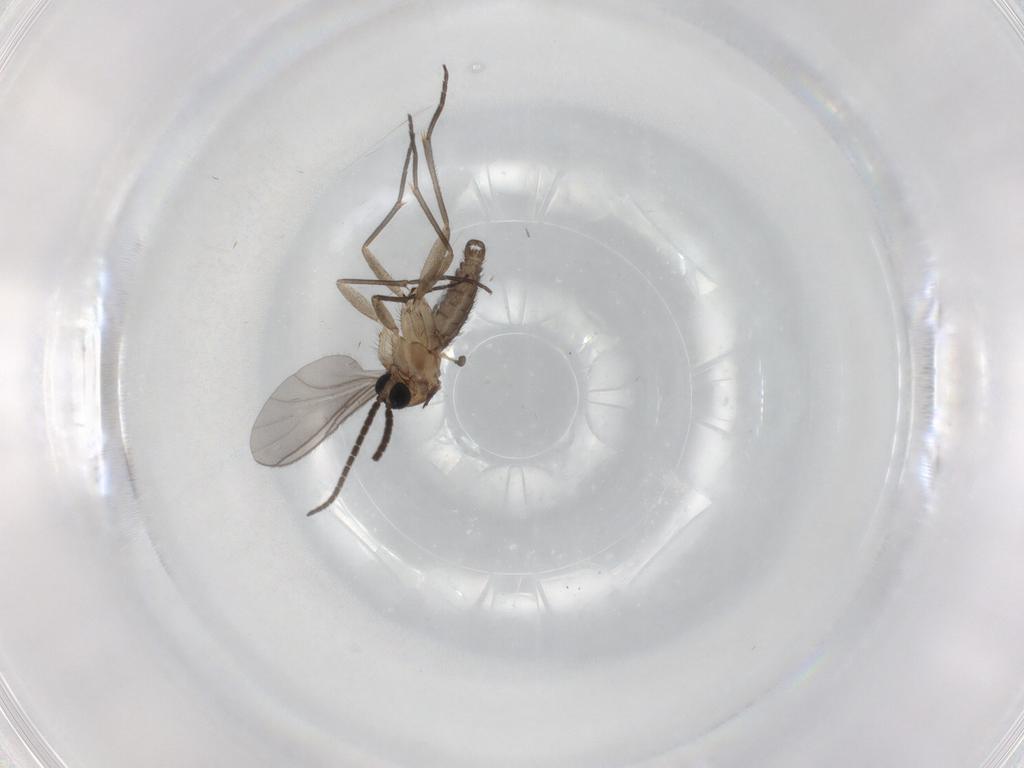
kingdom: Animalia
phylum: Arthropoda
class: Insecta
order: Diptera
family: Sciaridae
